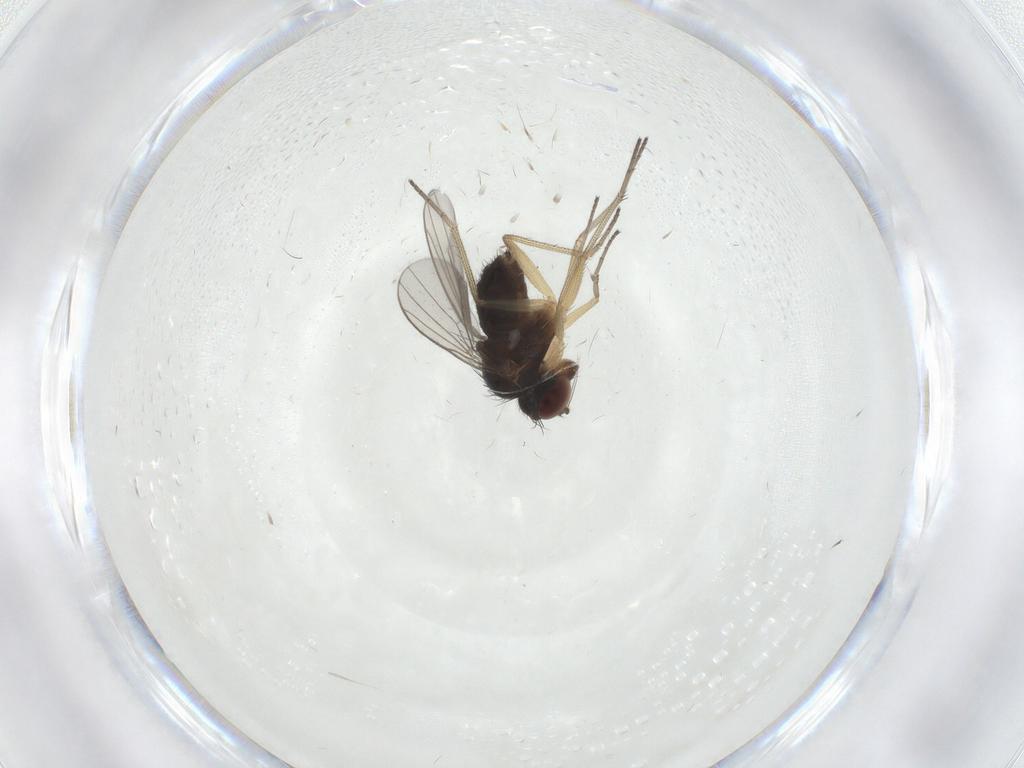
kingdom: Animalia
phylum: Arthropoda
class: Insecta
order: Diptera
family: Dolichopodidae
